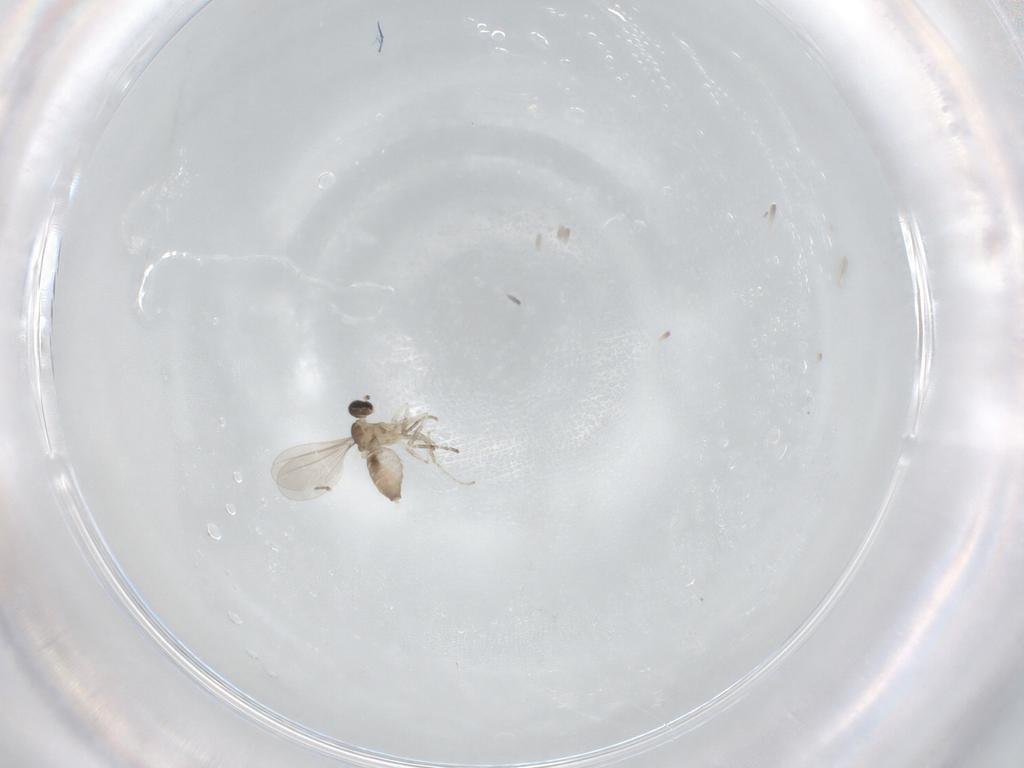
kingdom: Animalia
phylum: Arthropoda
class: Insecta
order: Diptera
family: Cecidomyiidae
